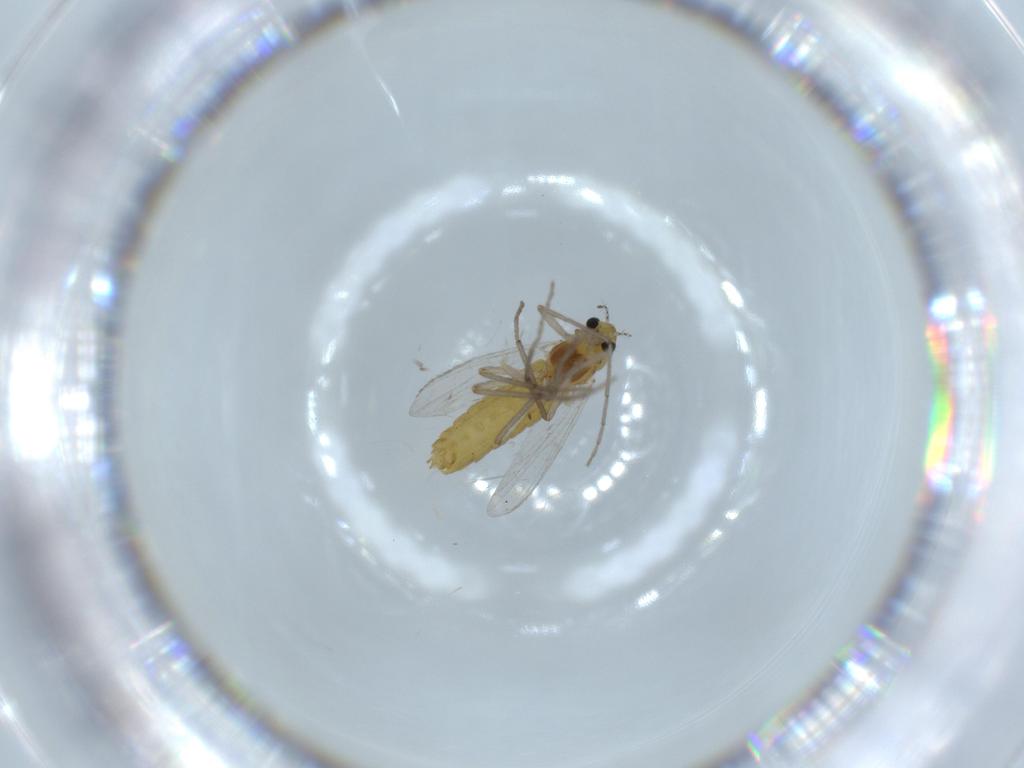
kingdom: Animalia
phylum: Arthropoda
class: Insecta
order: Diptera
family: Chironomidae
